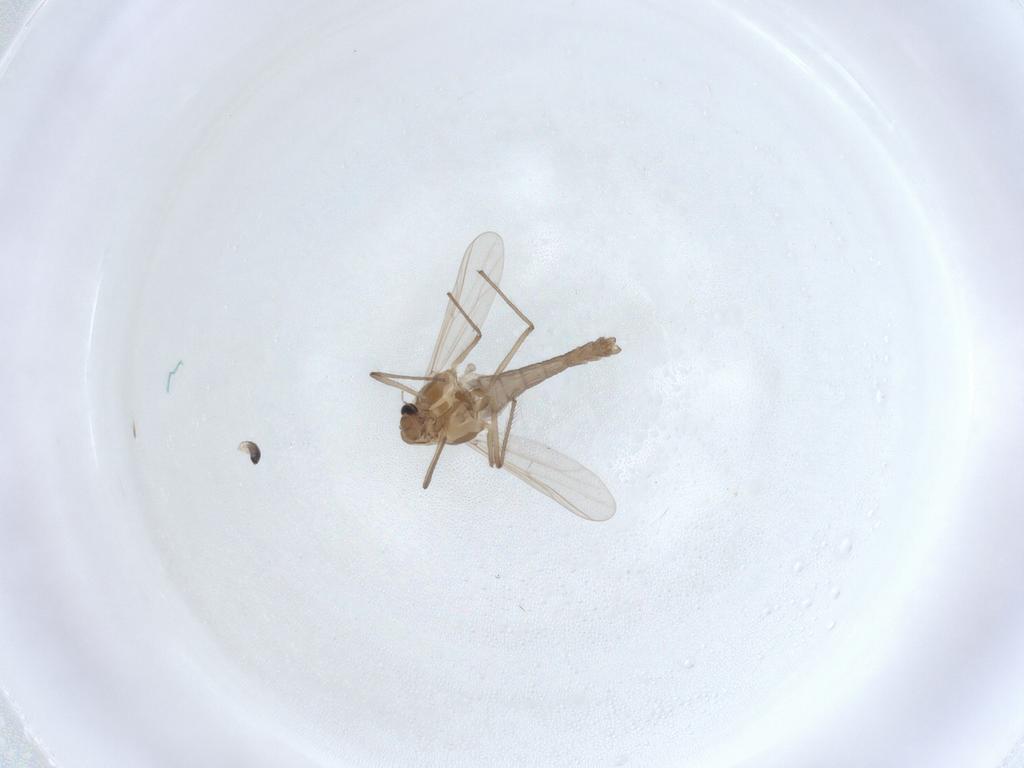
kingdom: Animalia
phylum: Arthropoda
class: Insecta
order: Diptera
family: Chironomidae
